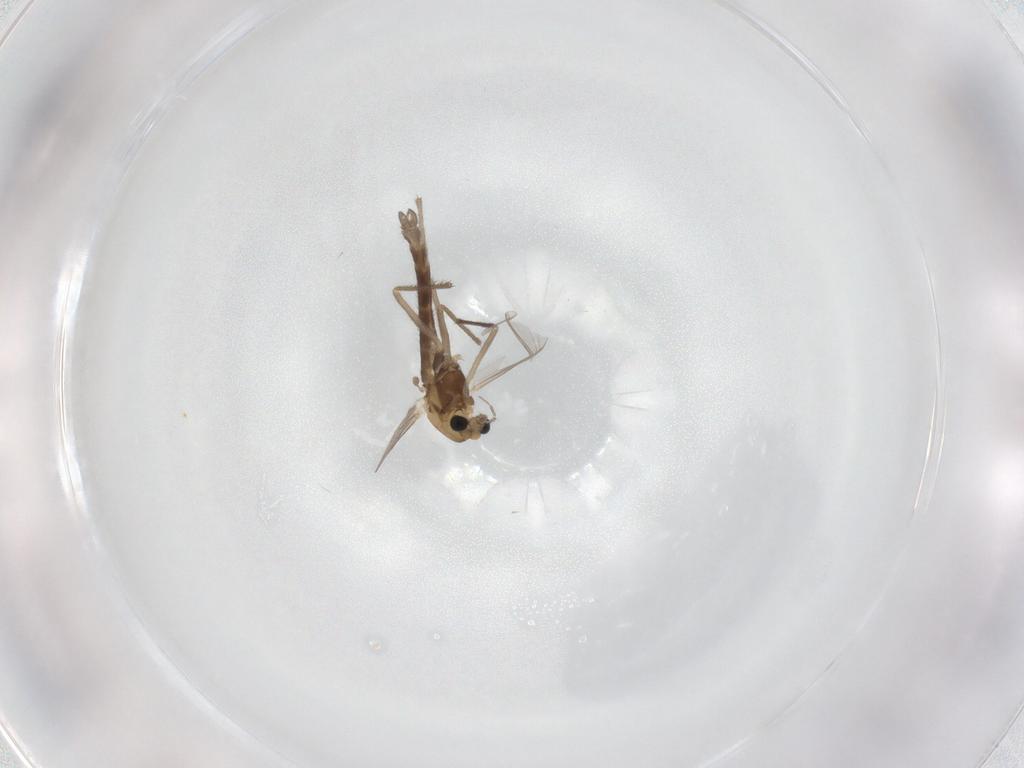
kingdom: Animalia
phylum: Arthropoda
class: Insecta
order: Diptera
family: Chironomidae
